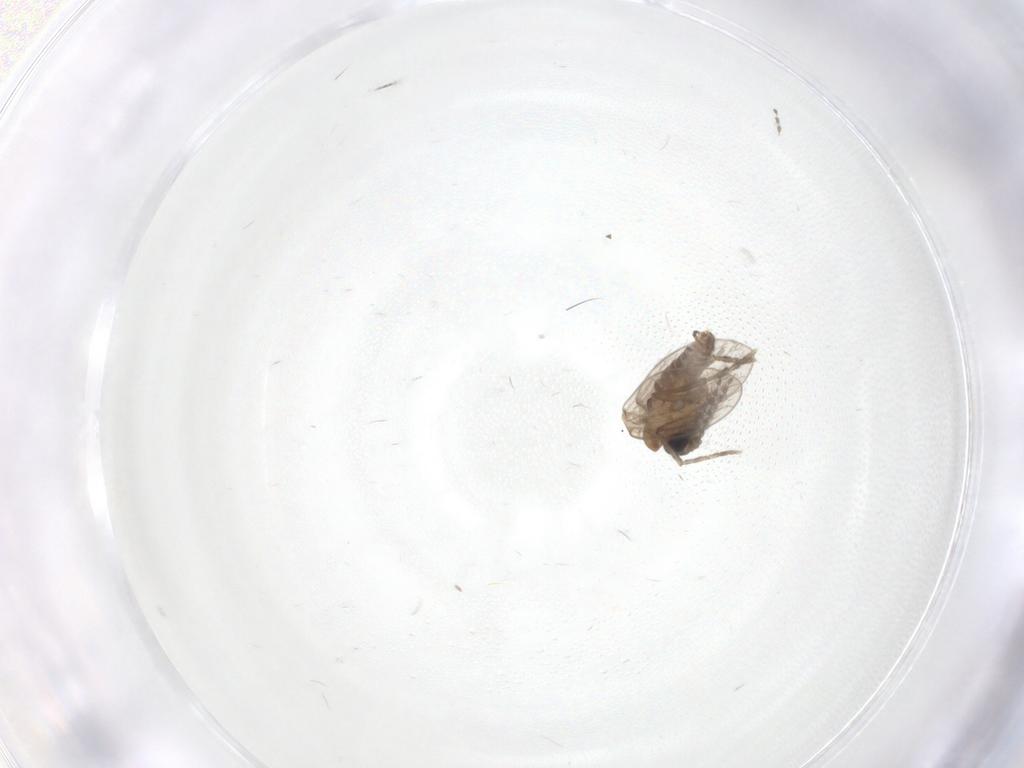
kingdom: Animalia
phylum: Arthropoda
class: Insecta
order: Diptera
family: Psychodidae
